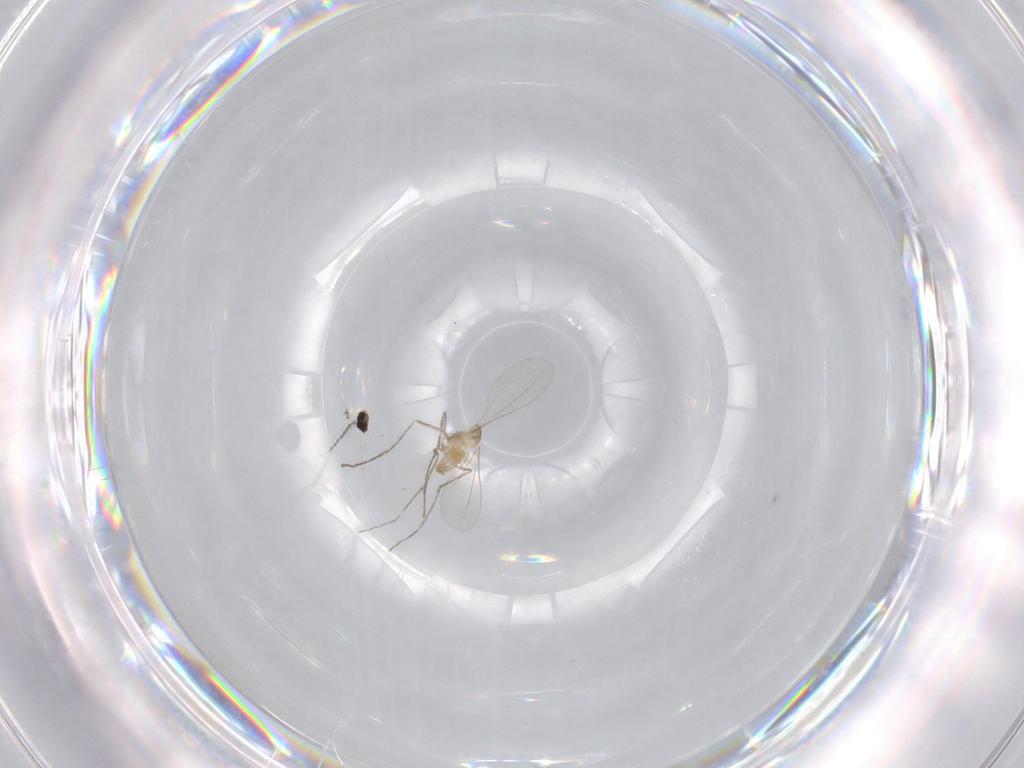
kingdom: Animalia
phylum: Arthropoda
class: Insecta
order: Diptera
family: Cecidomyiidae
